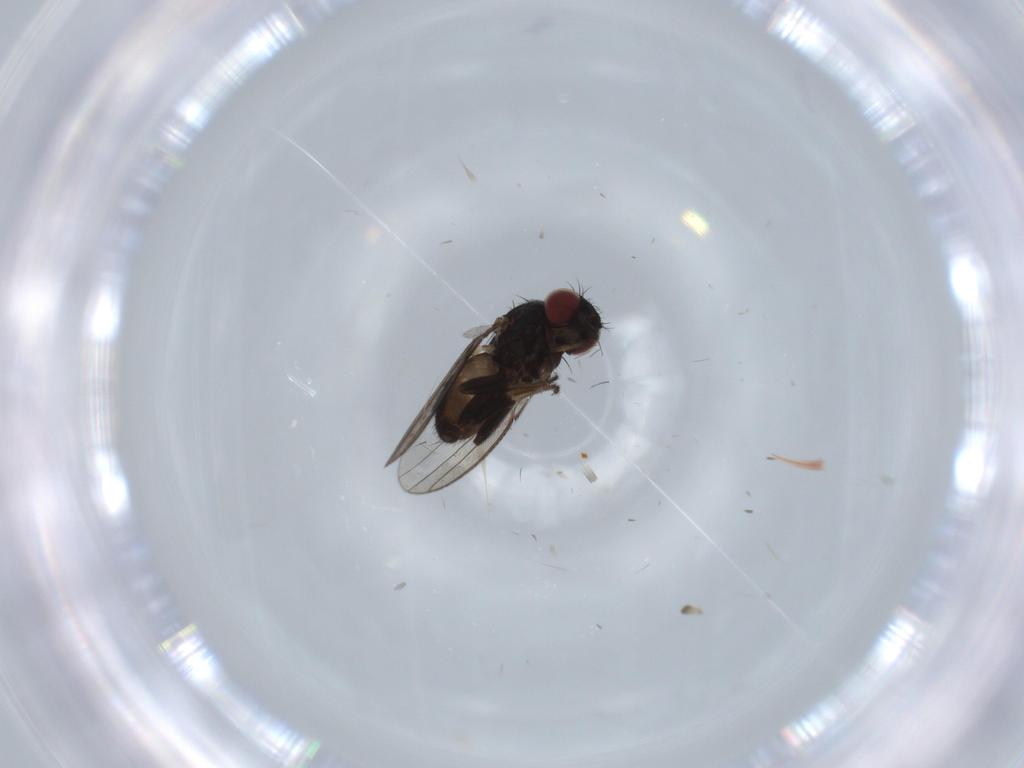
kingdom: Animalia
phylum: Arthropoda
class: Insecta
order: Diptera
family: Milichiidae
